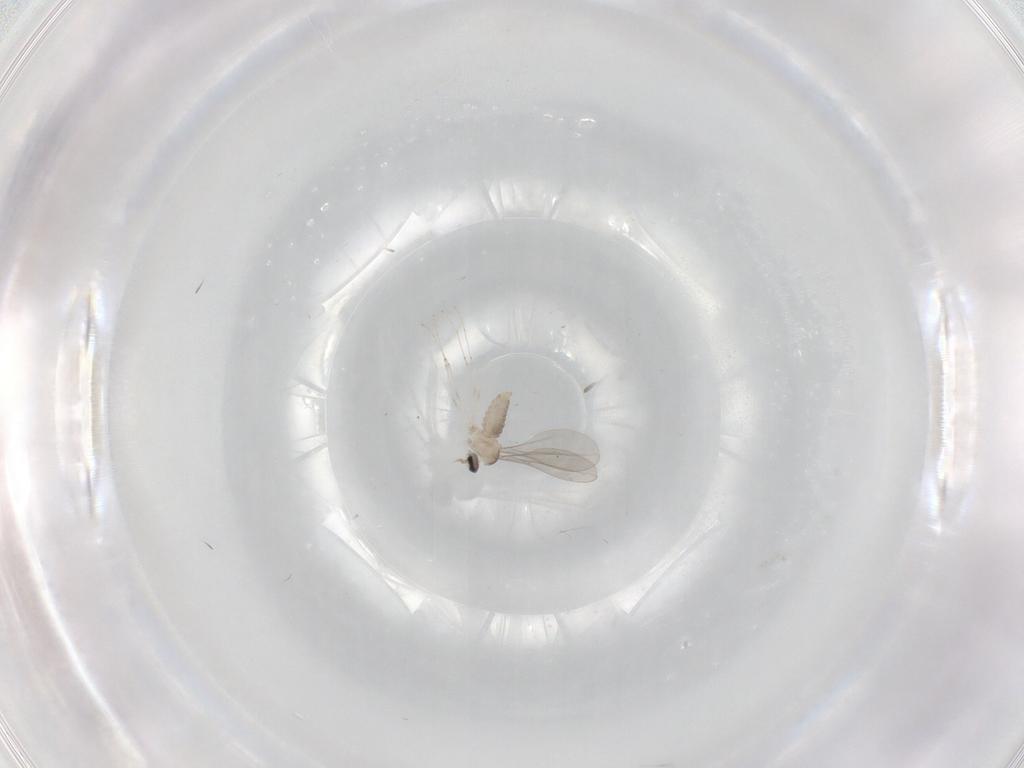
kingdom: Animalia
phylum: Arthropoda
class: Insecta
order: Diptera
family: Cecidomyiidae
